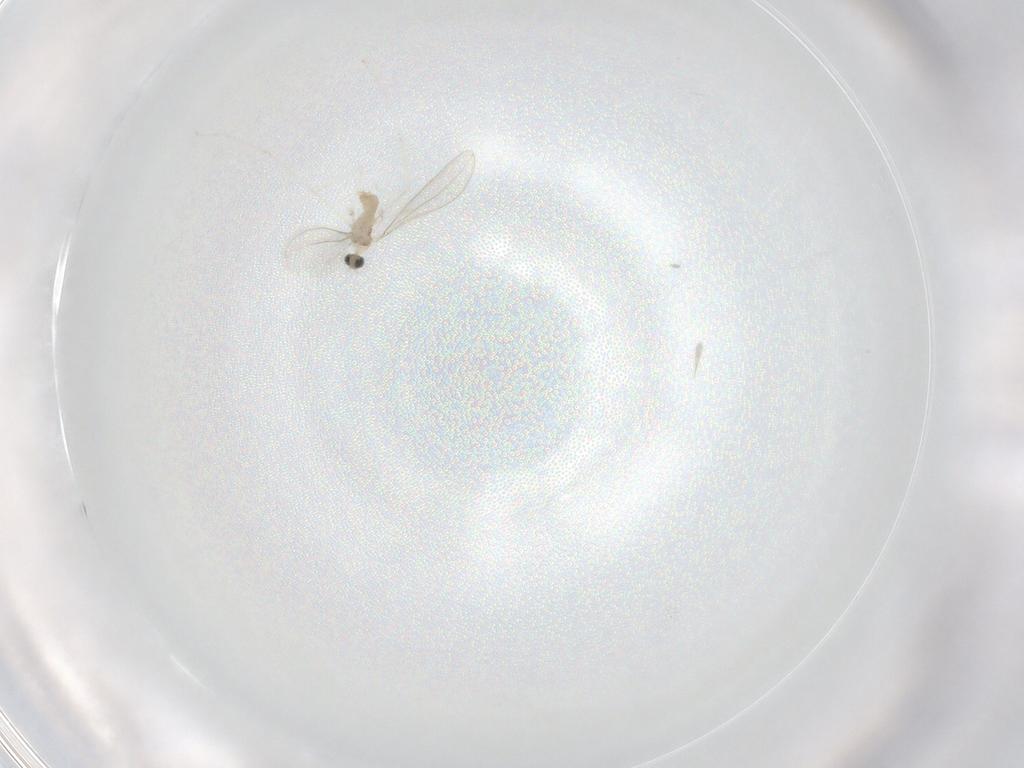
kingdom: Animalia
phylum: Arthropoda
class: Insecta
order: Diptera
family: Cecidomyiidae
